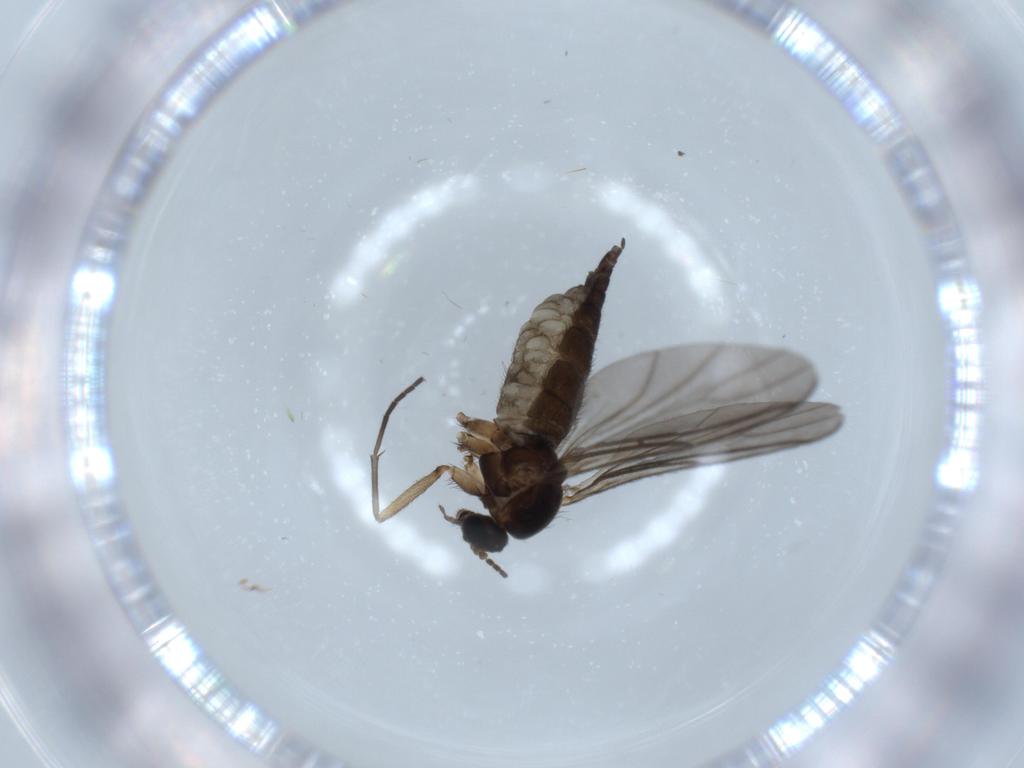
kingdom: Animalia
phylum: Arthropoda
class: Insecta
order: Diptera
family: Sciaridae
